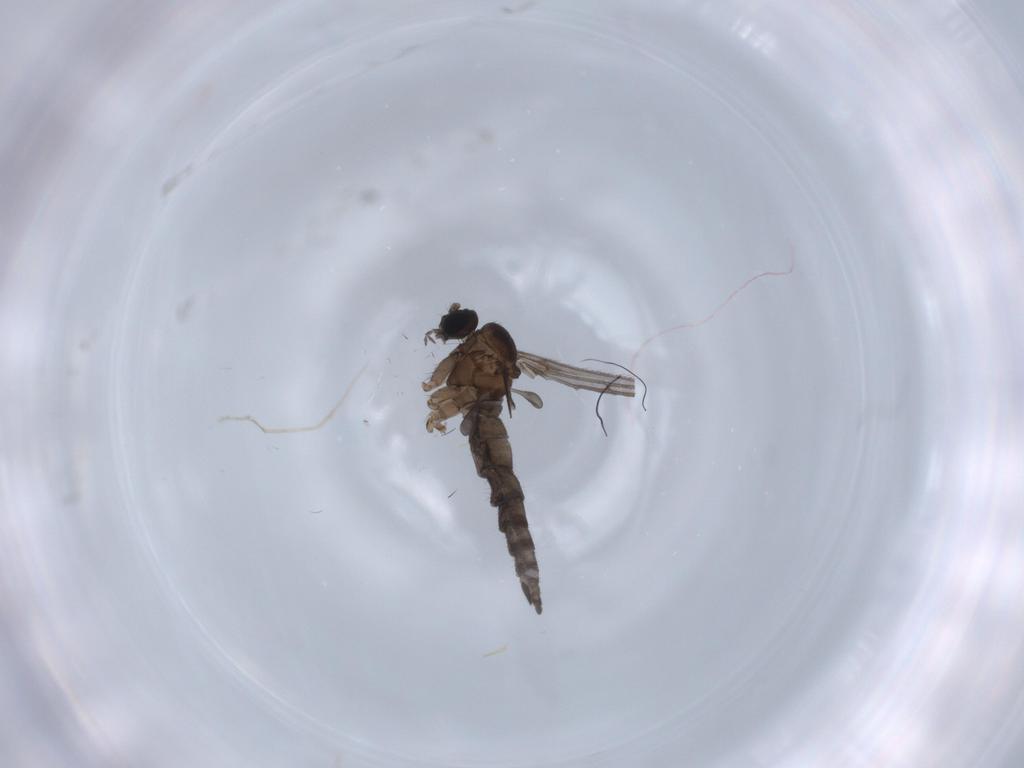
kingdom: Animalia
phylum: Arthropoda
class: Insecta
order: Diptera
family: Sciaridae
